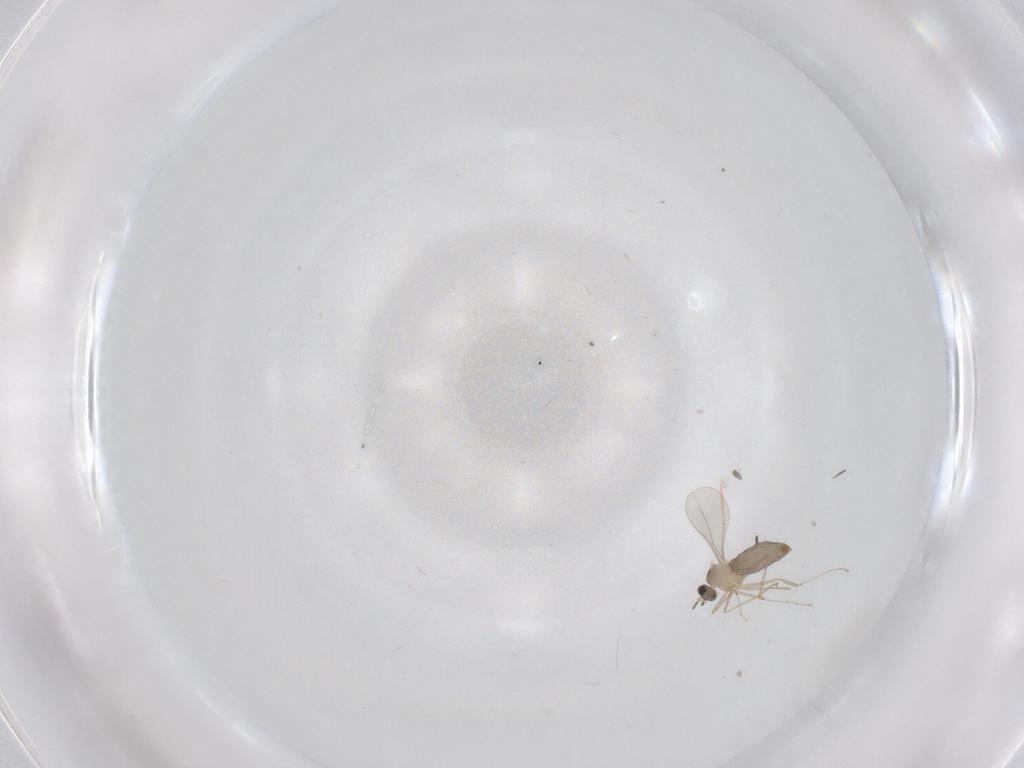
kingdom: Animalia
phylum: Arthropoda
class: Insecta
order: Diptera
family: Cecidomyiidae
